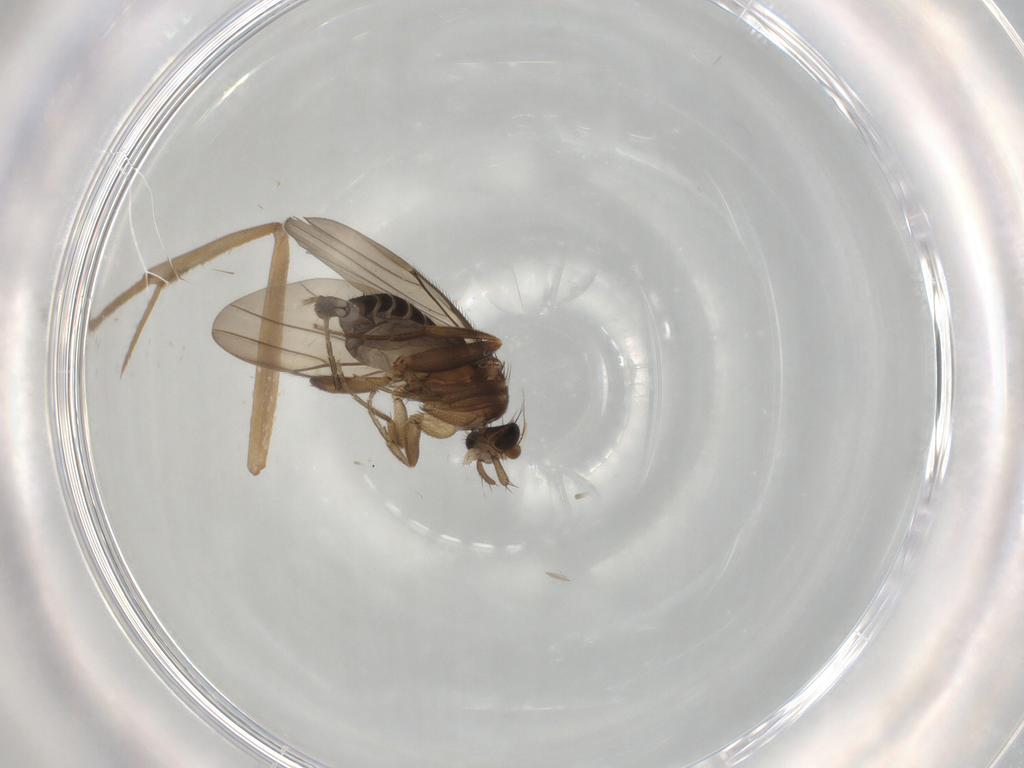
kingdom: Animalia
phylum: Arthropoda
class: Insecta
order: Diptera
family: Phoridae
